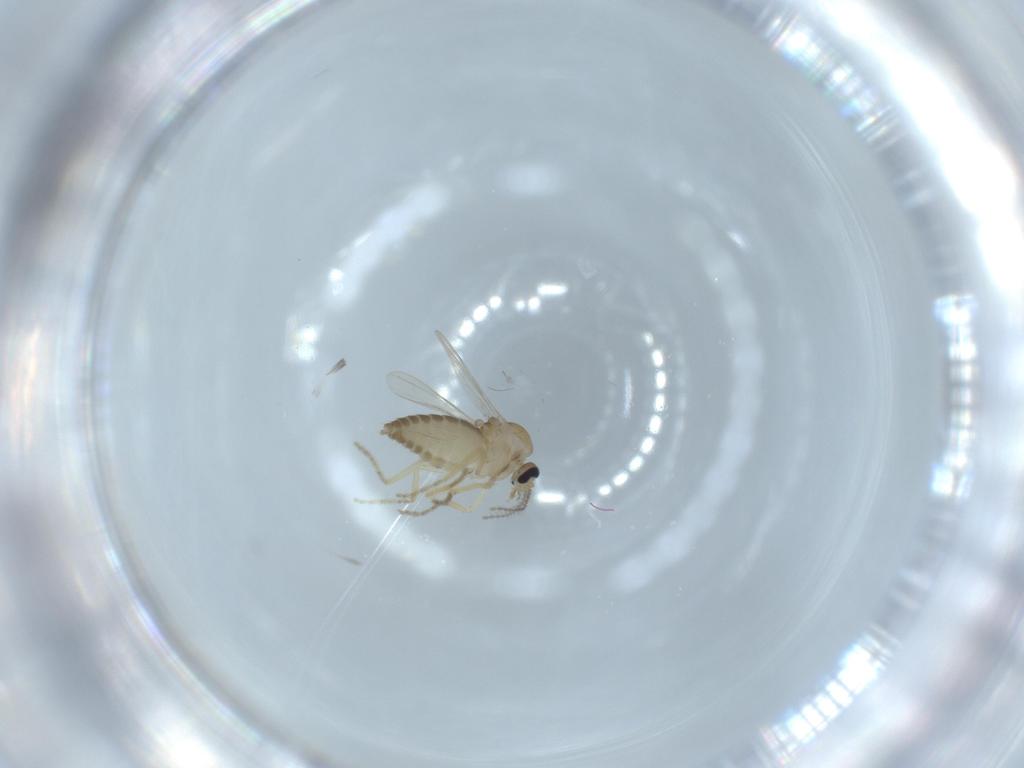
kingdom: Animalia
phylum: Arthropoda
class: Insecta
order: Diptera
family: Ceratopogonidae
